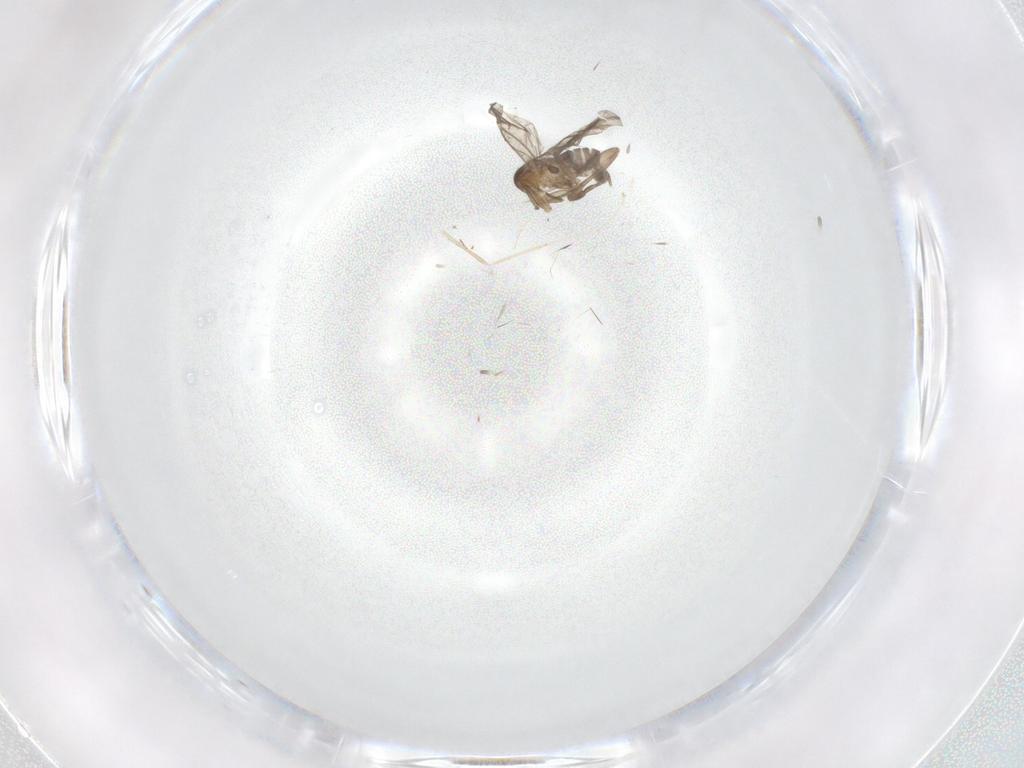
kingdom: Animalia
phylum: Arthropoda
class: Insecta
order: Diptera
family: Phoridae
